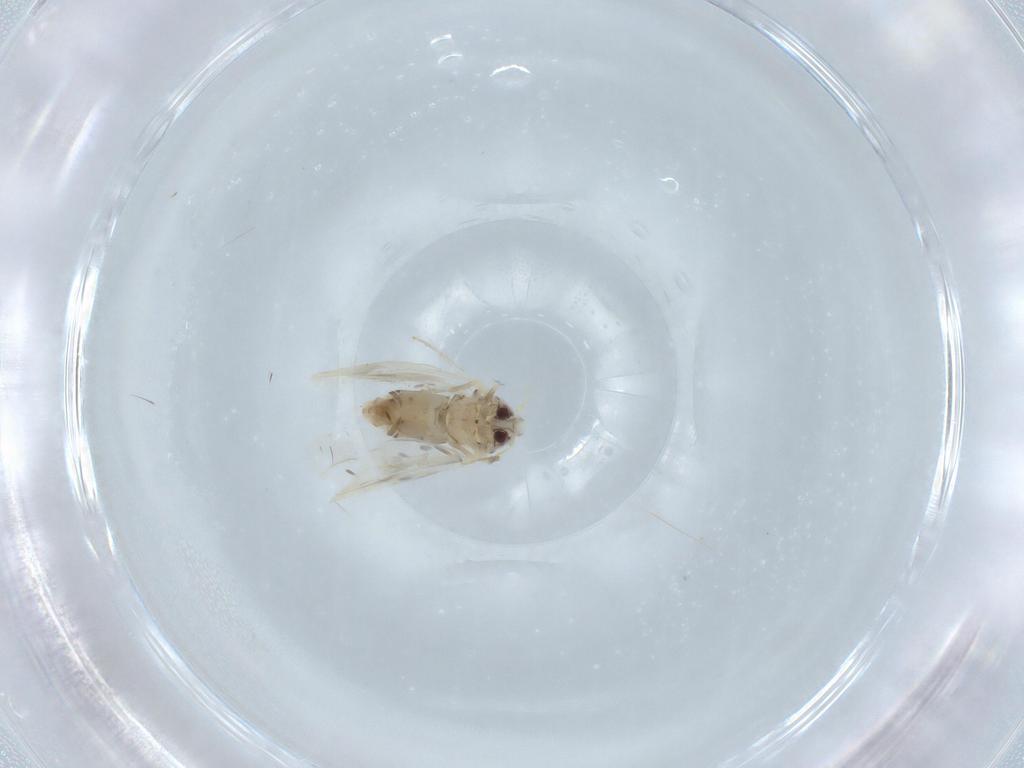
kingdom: Animalia
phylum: Arthropoda
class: Insecta
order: Hemiptera
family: Aleyrodidae
